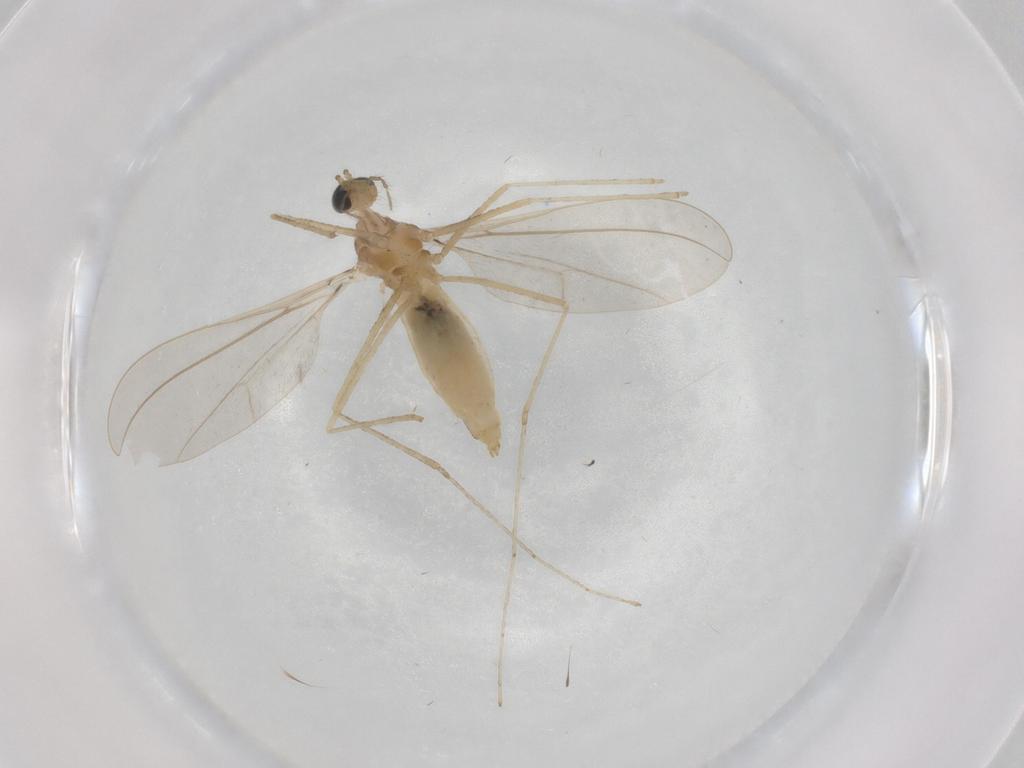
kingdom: Animalia
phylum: Arthropoda
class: Insecta
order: Diptera
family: Cecidomyiidae
